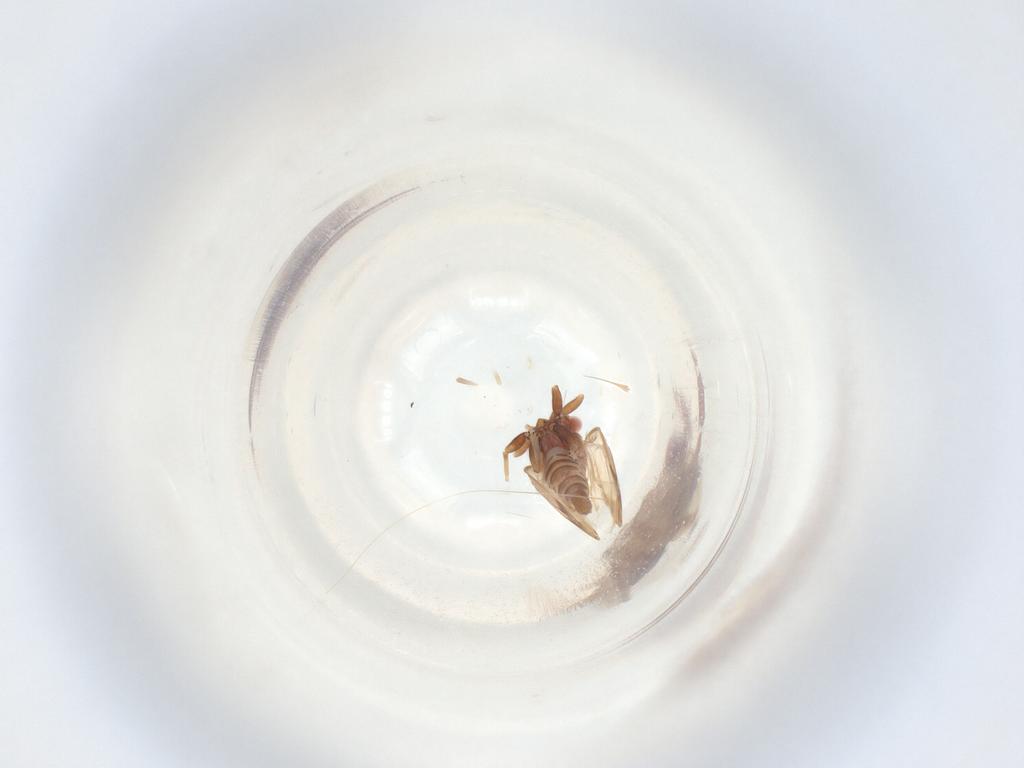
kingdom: Animalia
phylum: Arthropoda
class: Insecta
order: Diptera
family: Ceratopogonidae
